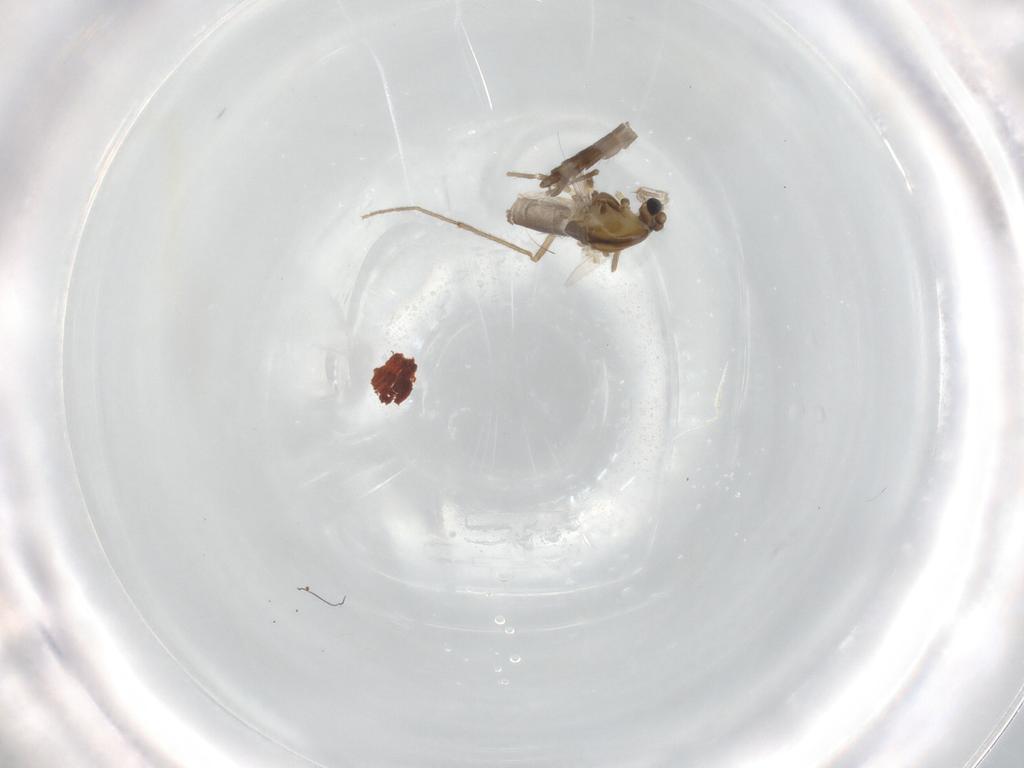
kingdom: Animalia
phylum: Arthropoda
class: Insecta
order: Diptera
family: Chironomidae
